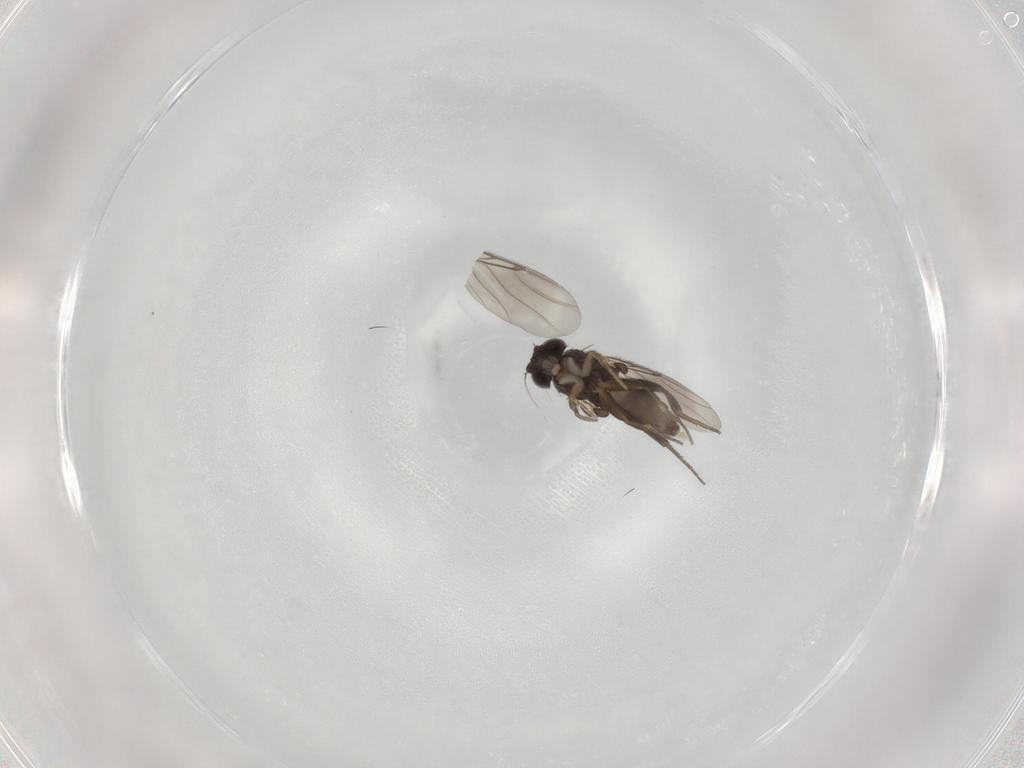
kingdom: Animalia
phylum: Arthropoda
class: Insecta
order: Diptera
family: Phoridae
